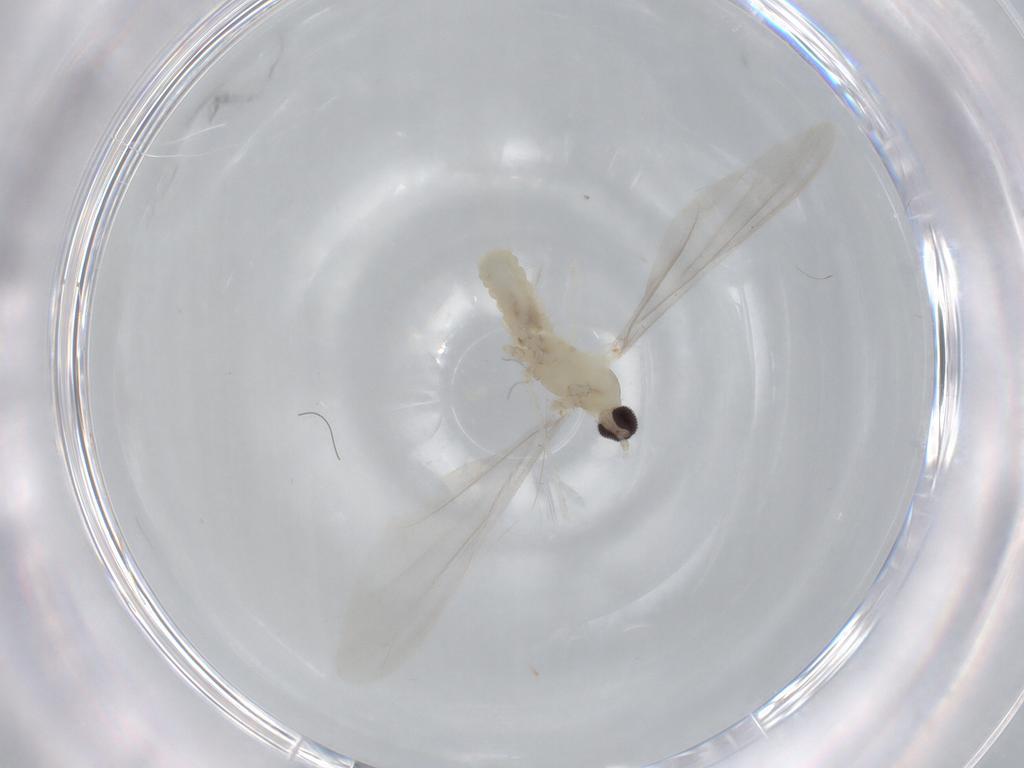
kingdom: Animalia
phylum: Arthropoda
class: Insecta
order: Diptera
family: Cecidomyiidae
